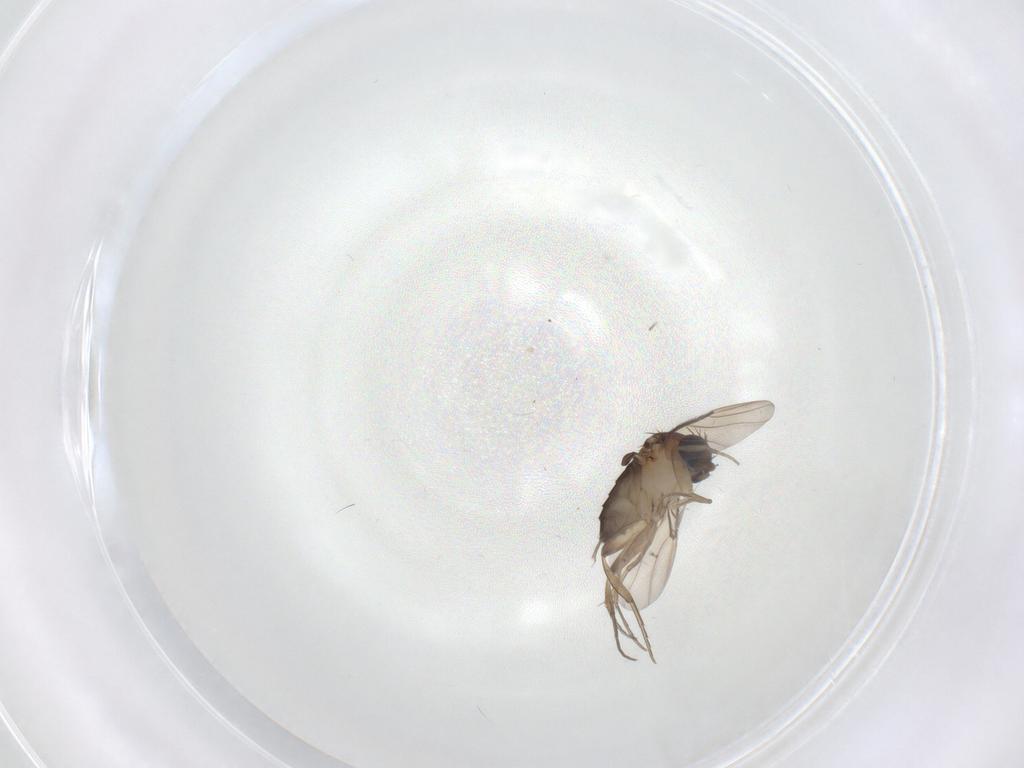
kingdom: Animalia
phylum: Arthropoda
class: Insecta
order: Diptera
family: Phoridae
